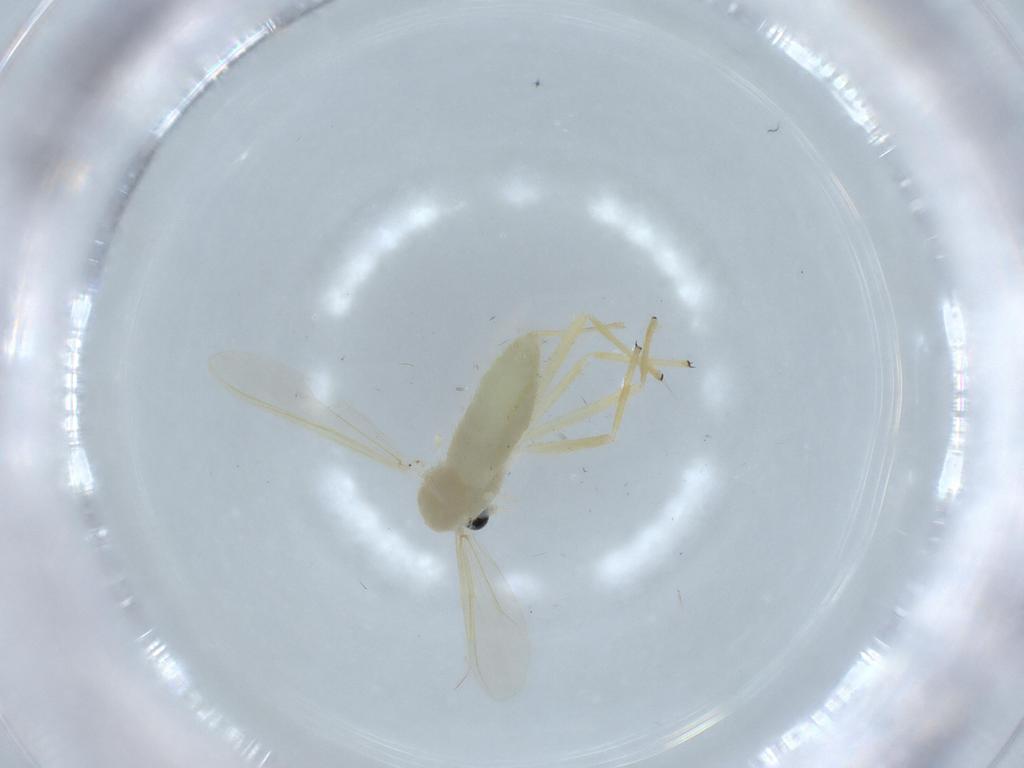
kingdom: Animalia
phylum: Arthropoda
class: Insecta
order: Diptera
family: Chironomidae
